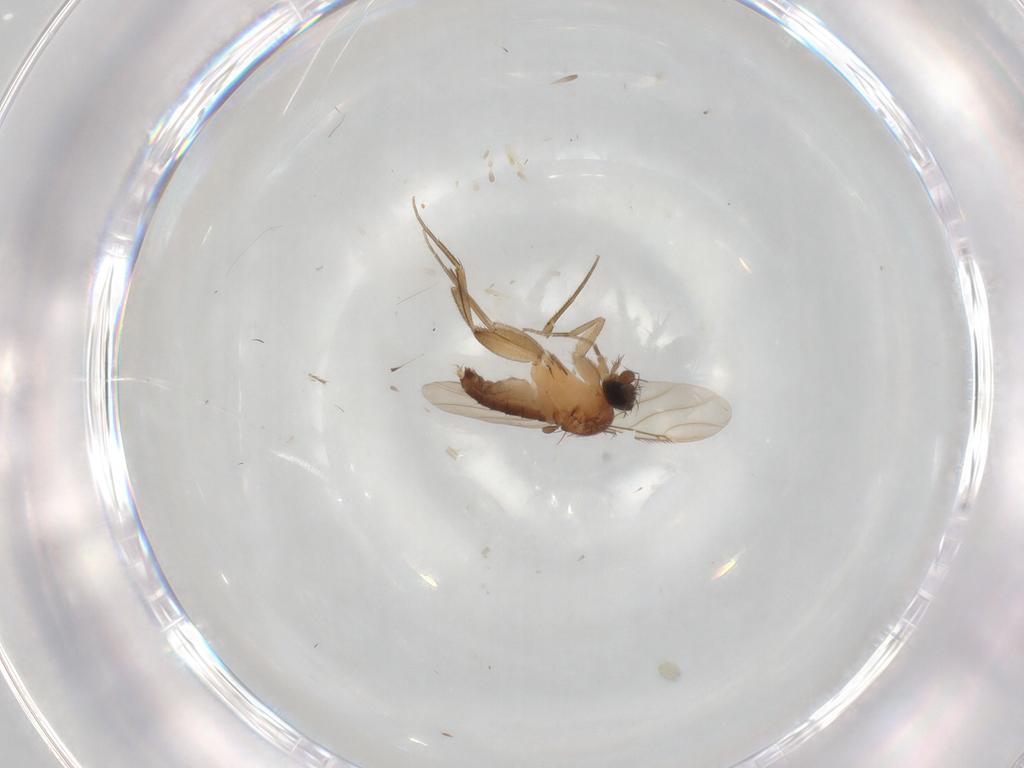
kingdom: Animalia
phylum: Arthropoda
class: Insecta
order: Diptera
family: Phoridae
